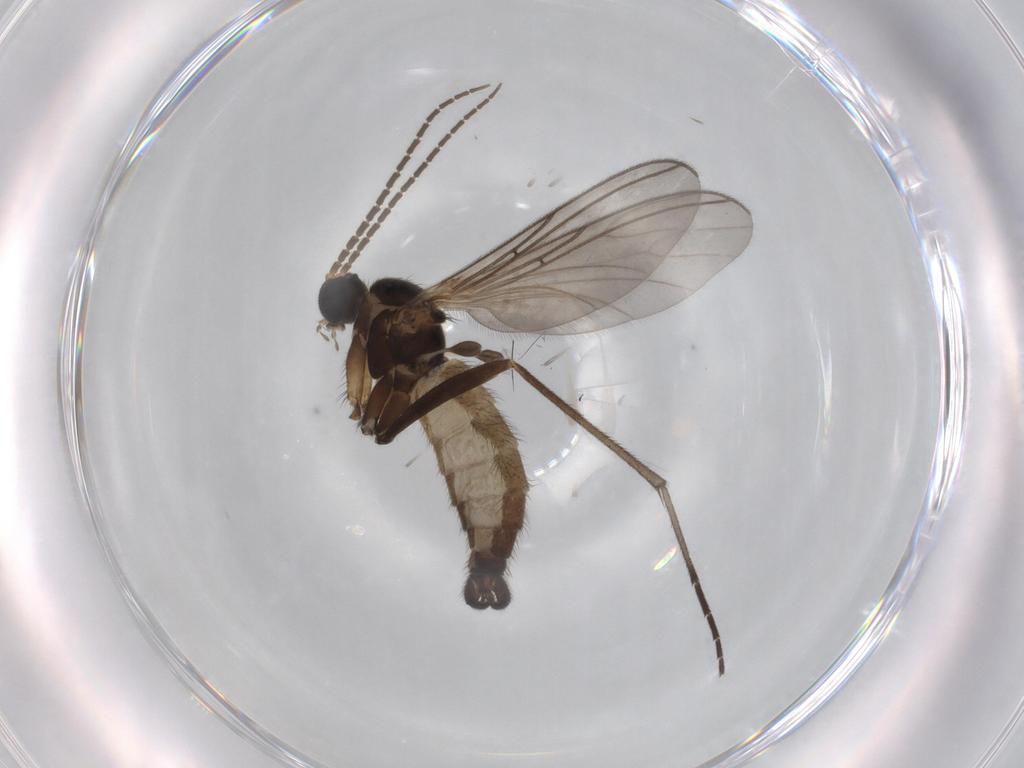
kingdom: Animalia
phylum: Arthropoda
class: Insecta
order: Diptera
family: Sciaridae
